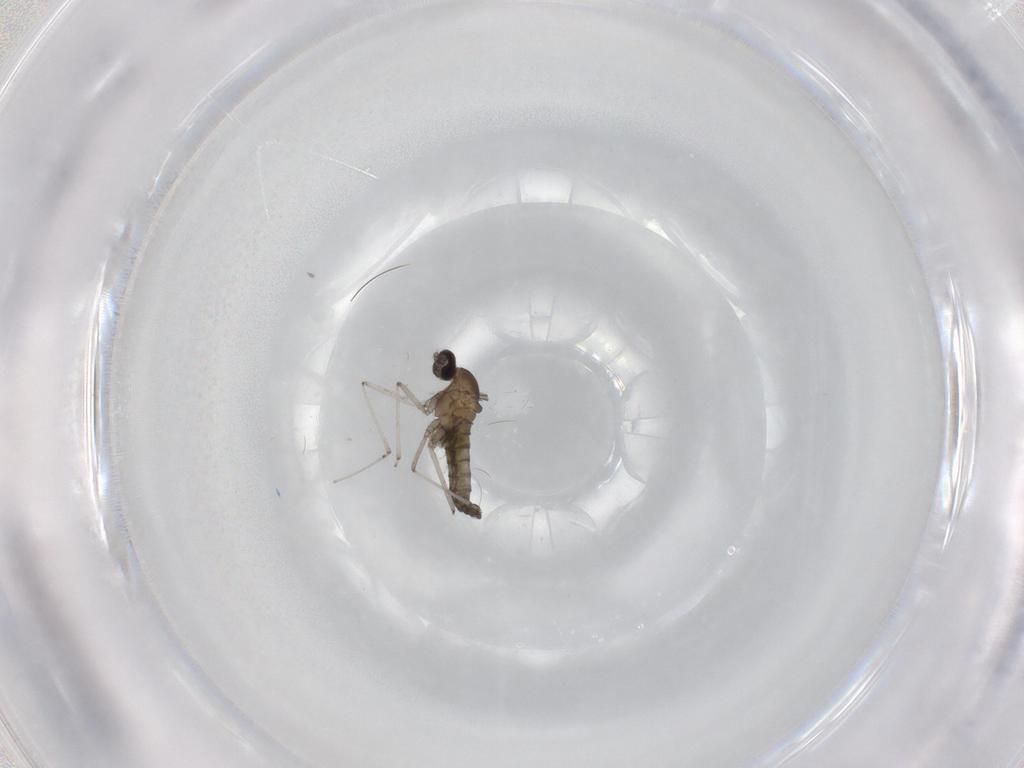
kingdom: Animalia
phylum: Arthropoda
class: Insecta
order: Diptera
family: Cecidomyiidae
